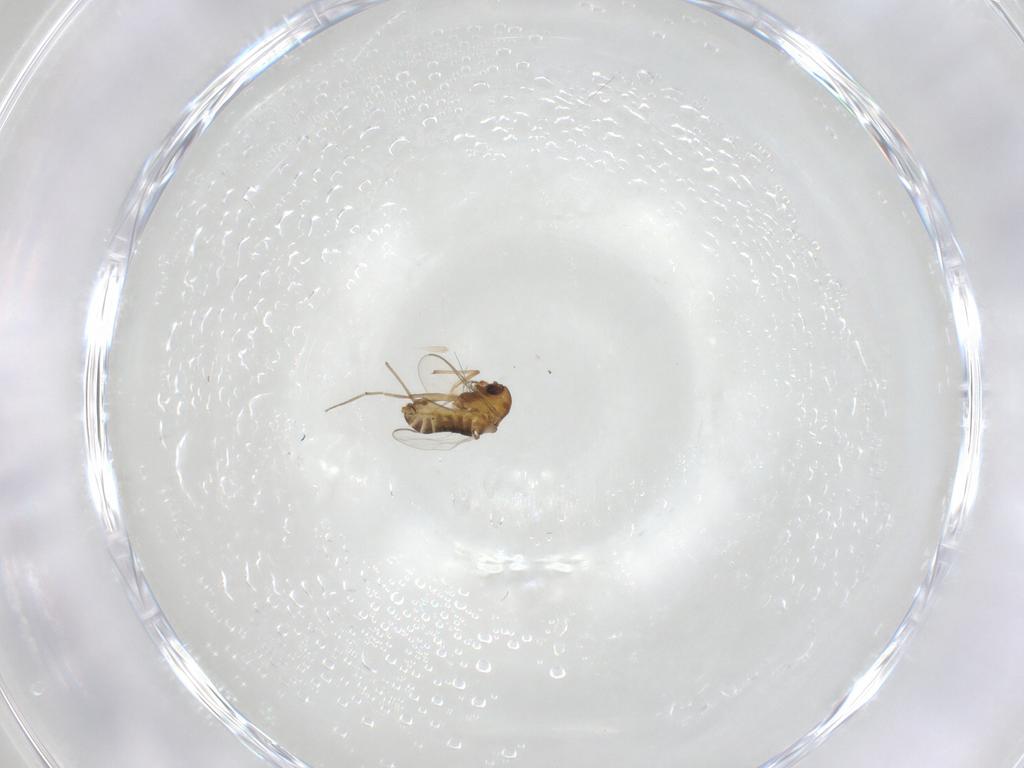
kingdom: Animalia
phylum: Arthropoda
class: Insecta
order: Diptera
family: Chironomidae
